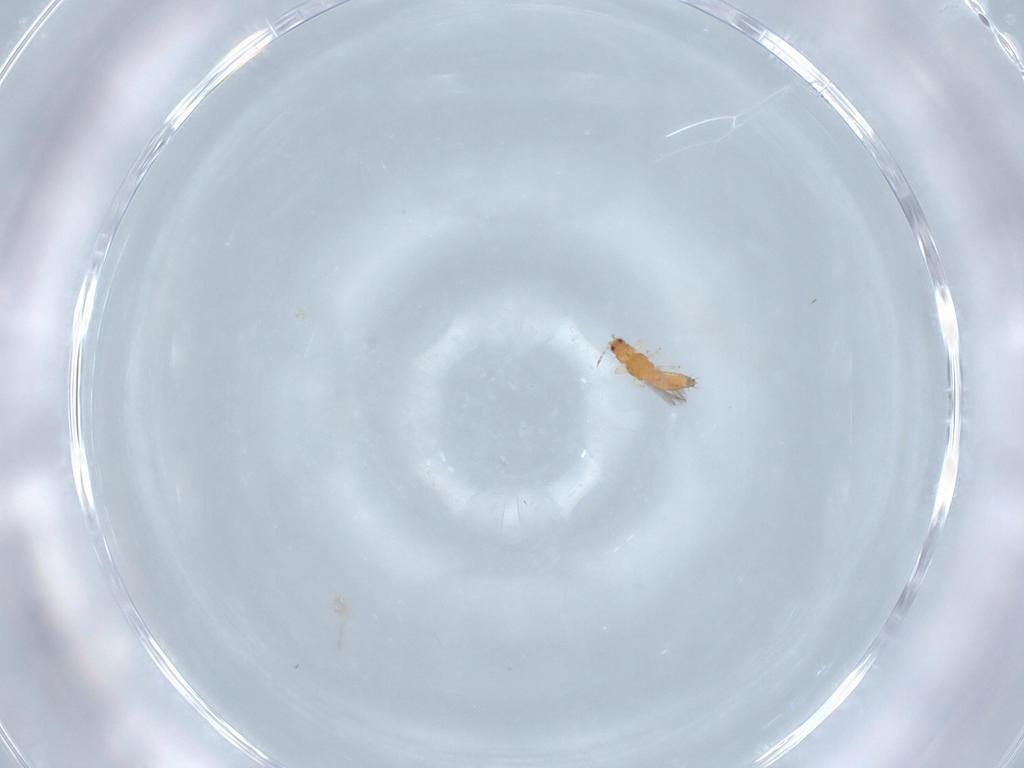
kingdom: Animalia
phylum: Arthropoda
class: Insecta
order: Thysanoptera
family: Thripidae
